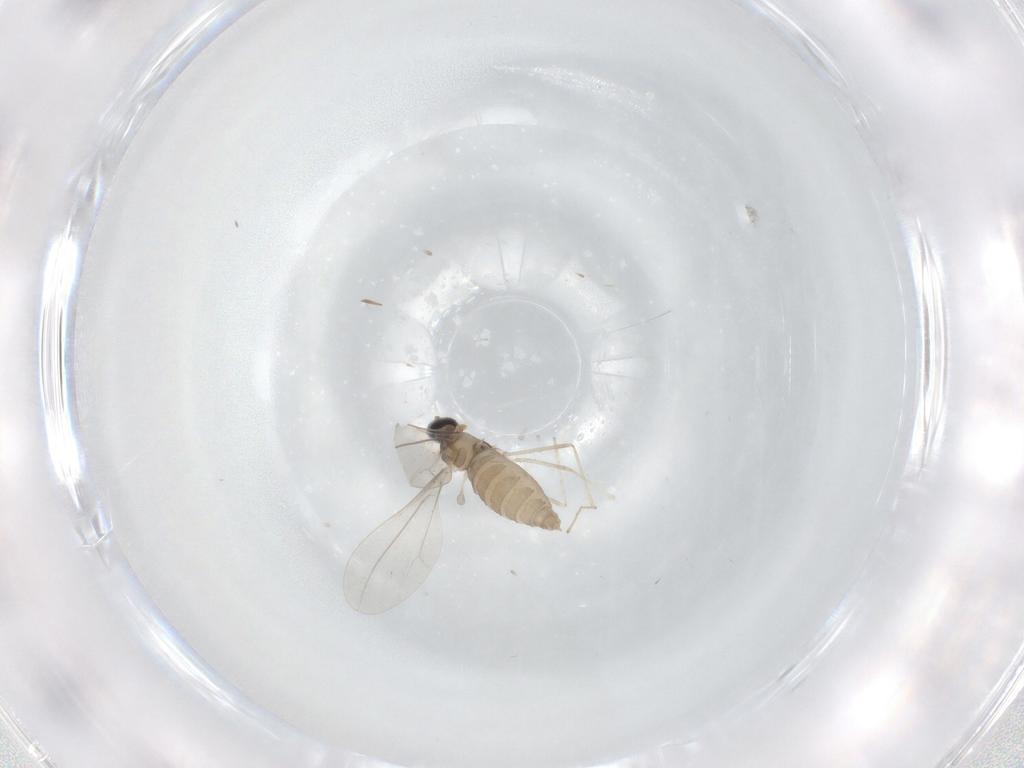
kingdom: Animalia
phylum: Arthropoda
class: Insecta
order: Diptera
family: Cecidomyiidae
